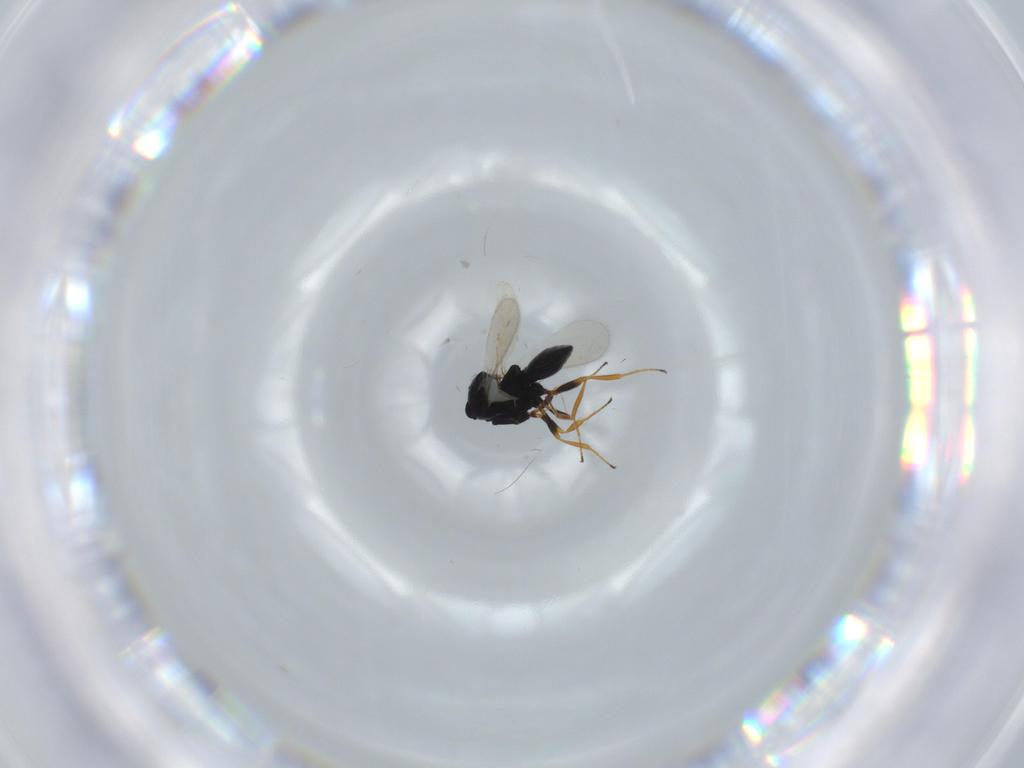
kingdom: Animalia
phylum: Arthropoda
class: Insecta
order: Hymenoptera
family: Scelionidae
